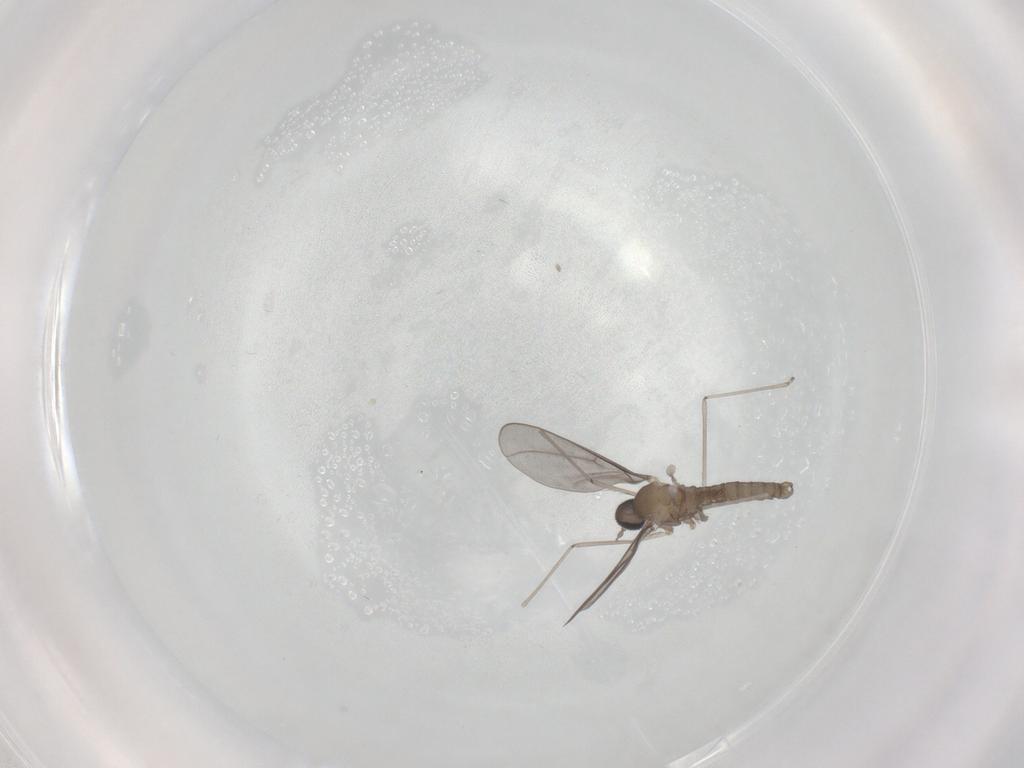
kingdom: Animalia
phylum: Arthropoda
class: Insecta
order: Diptera
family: Cecidomyiidae
